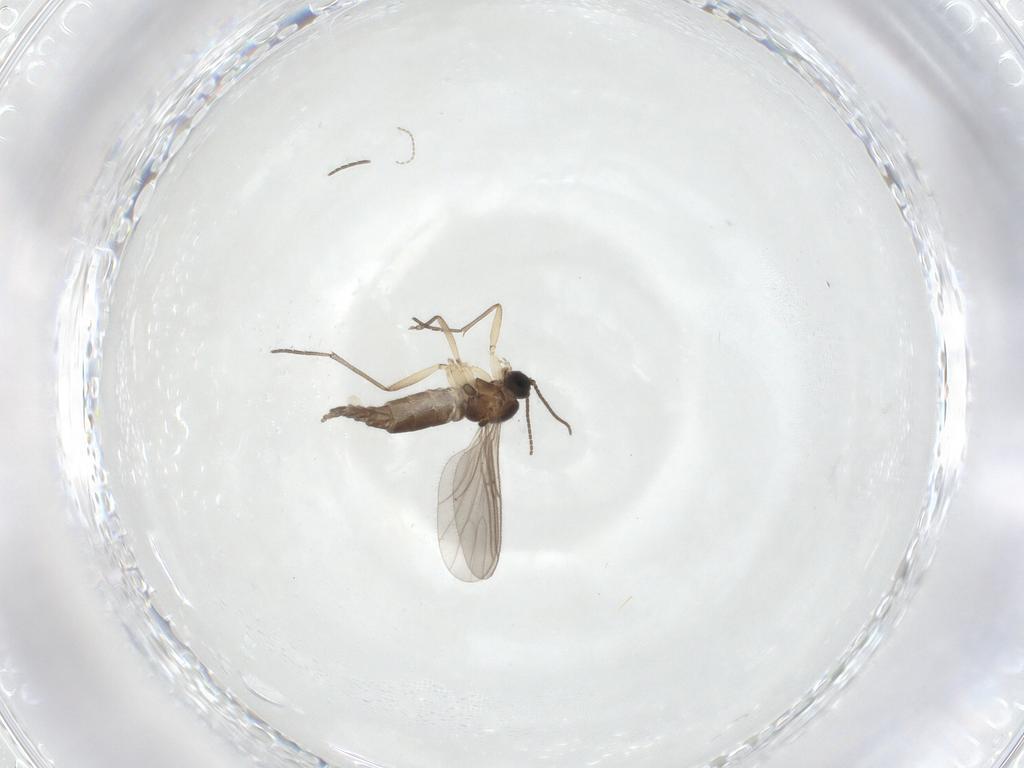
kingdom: Animalia
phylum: Arthropoda
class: Insecta
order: Diptera
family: Sciaridae
